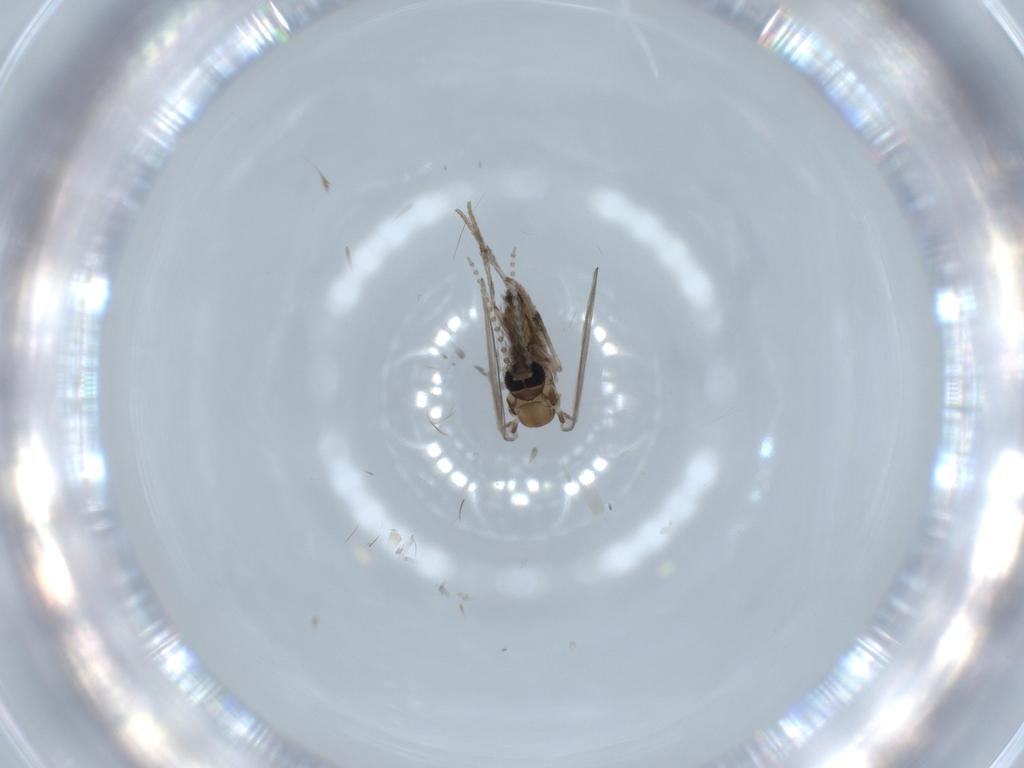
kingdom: Animalia
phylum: Arthropoda
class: Insecta
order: Diptera
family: Psychodidae
